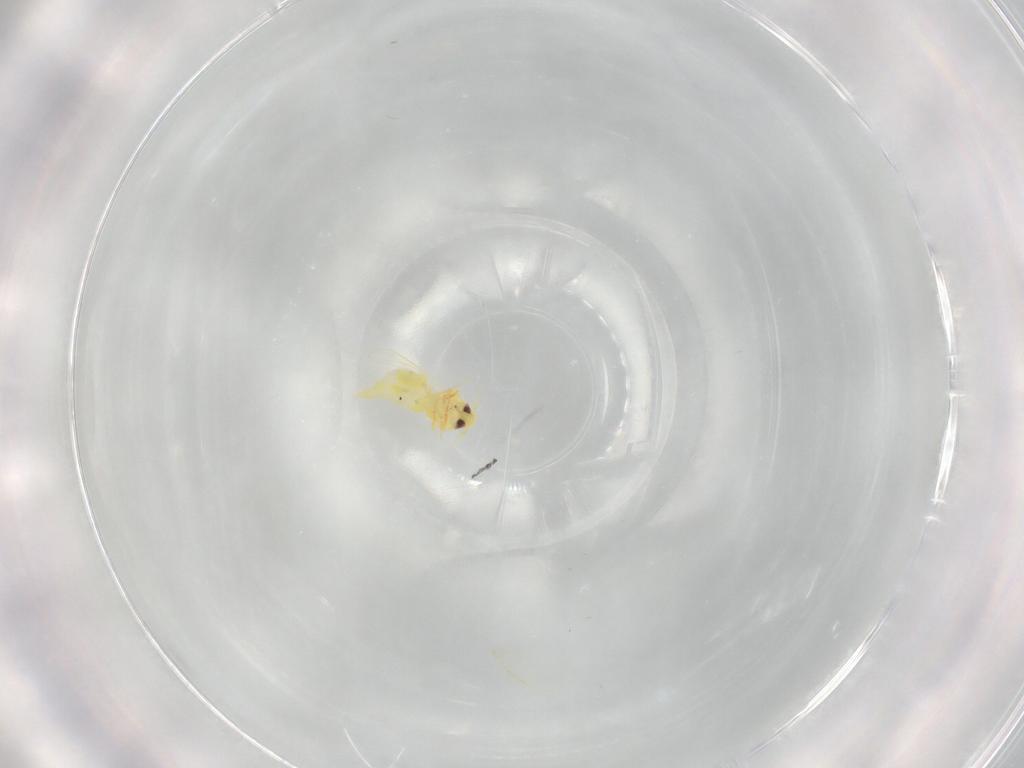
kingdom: Animalia
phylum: Arthropoda
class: Insecta
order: Hemiptera
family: Aleyrodidae
